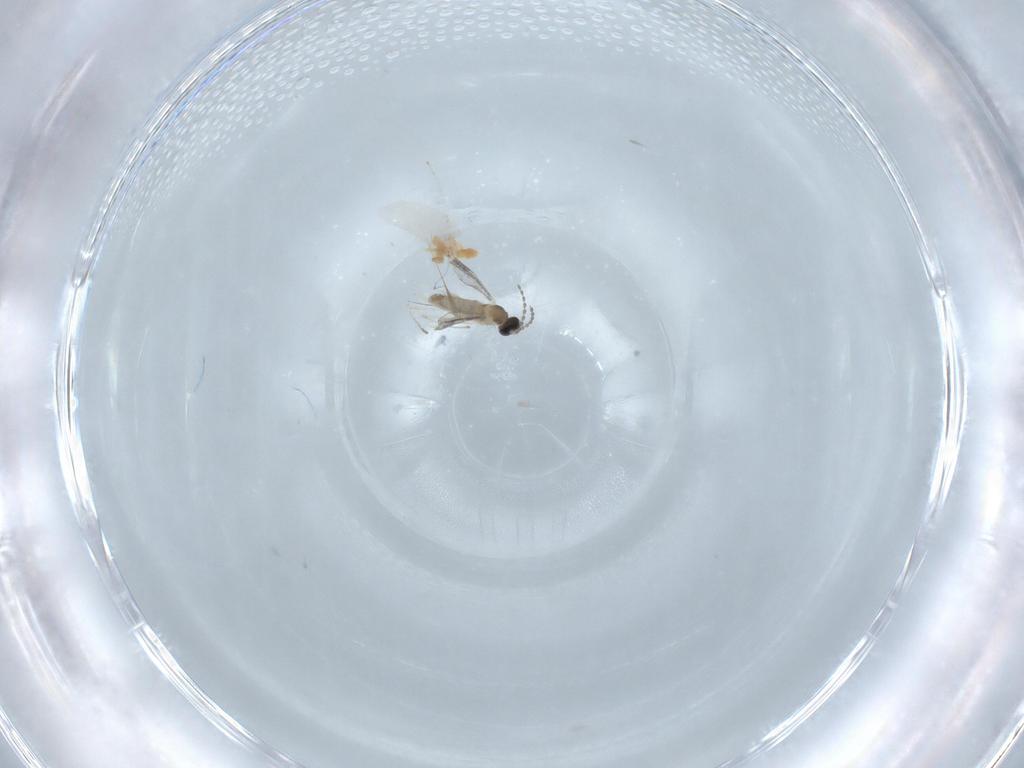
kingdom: Animalia
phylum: Arthropoda
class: Insecta
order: Diptera
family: Cecidomyiidae
